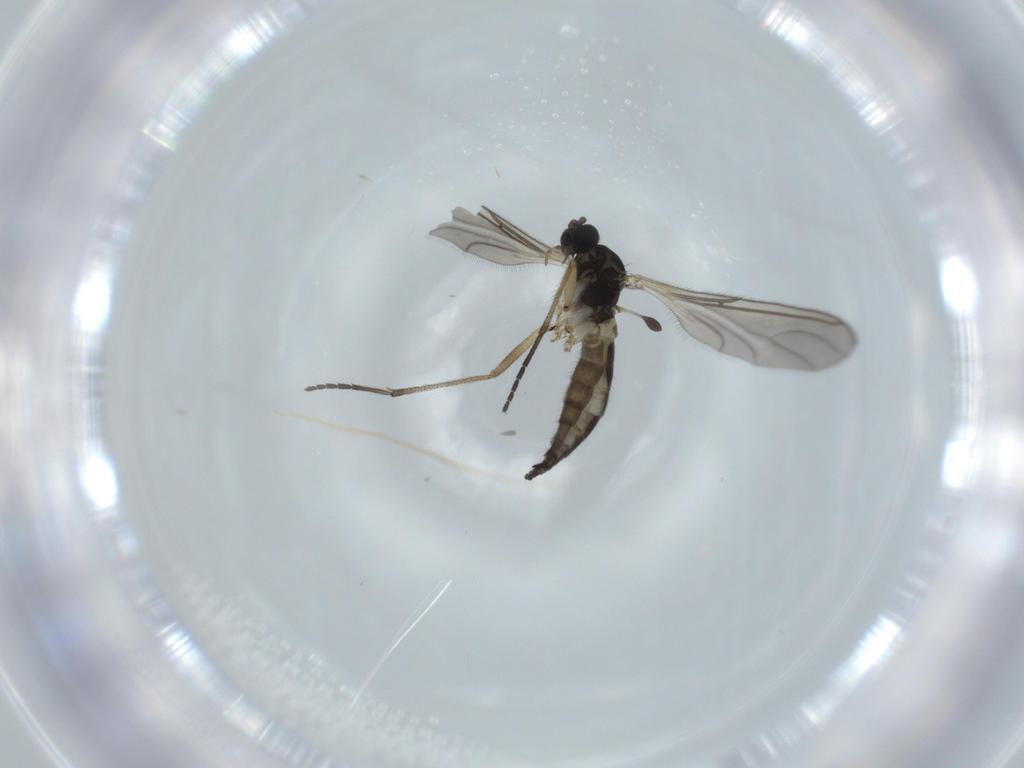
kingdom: Animalia
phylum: Arthropoda
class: Insecta
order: Diptera
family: Sciaridae
